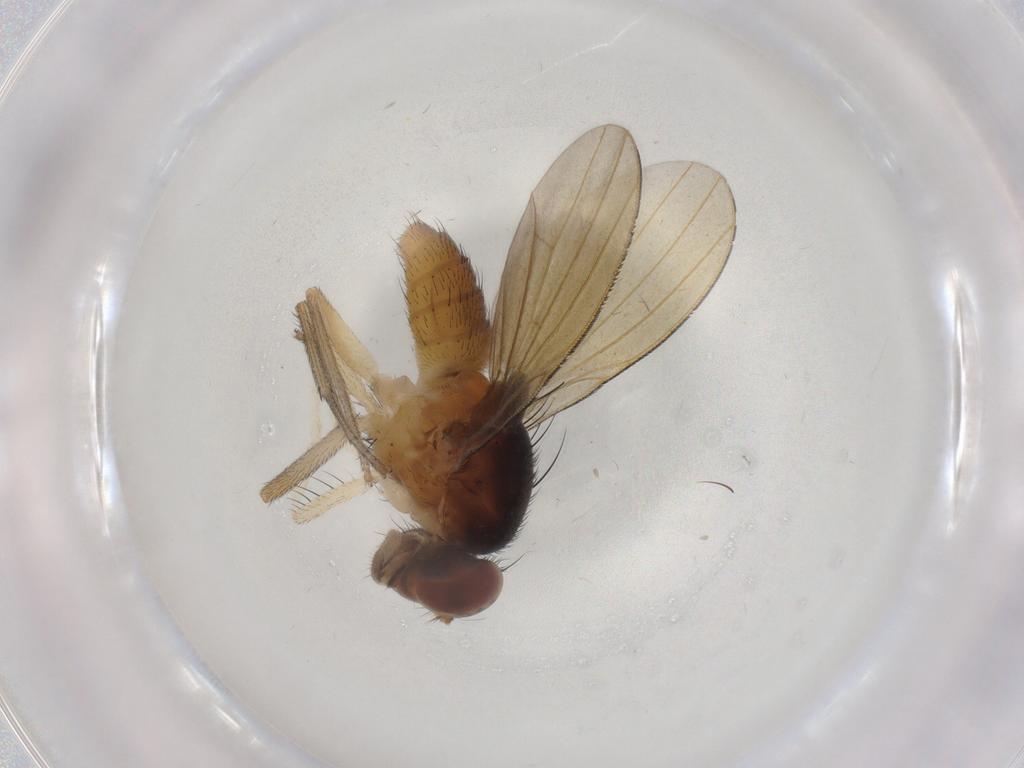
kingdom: Animalia
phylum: Arthropoda
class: Insecta
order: Diptera
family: Lauxaniidae
